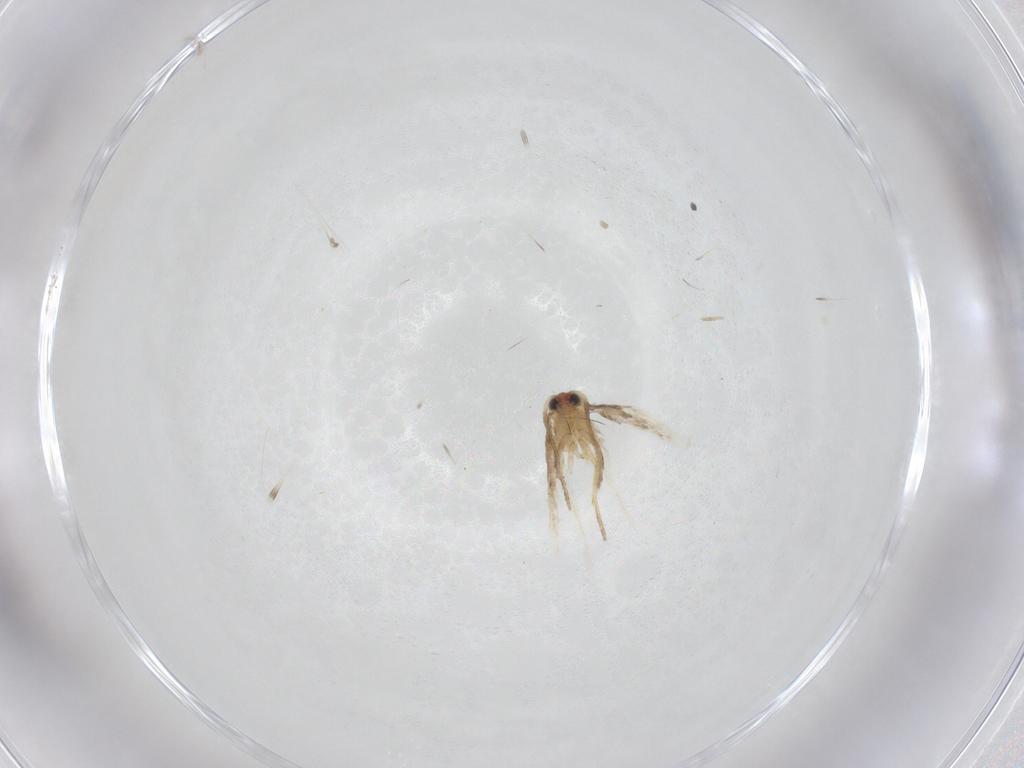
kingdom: Animalia
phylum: Arthropoda
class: Insecta
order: Lepidoptera
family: Nepticulidae
